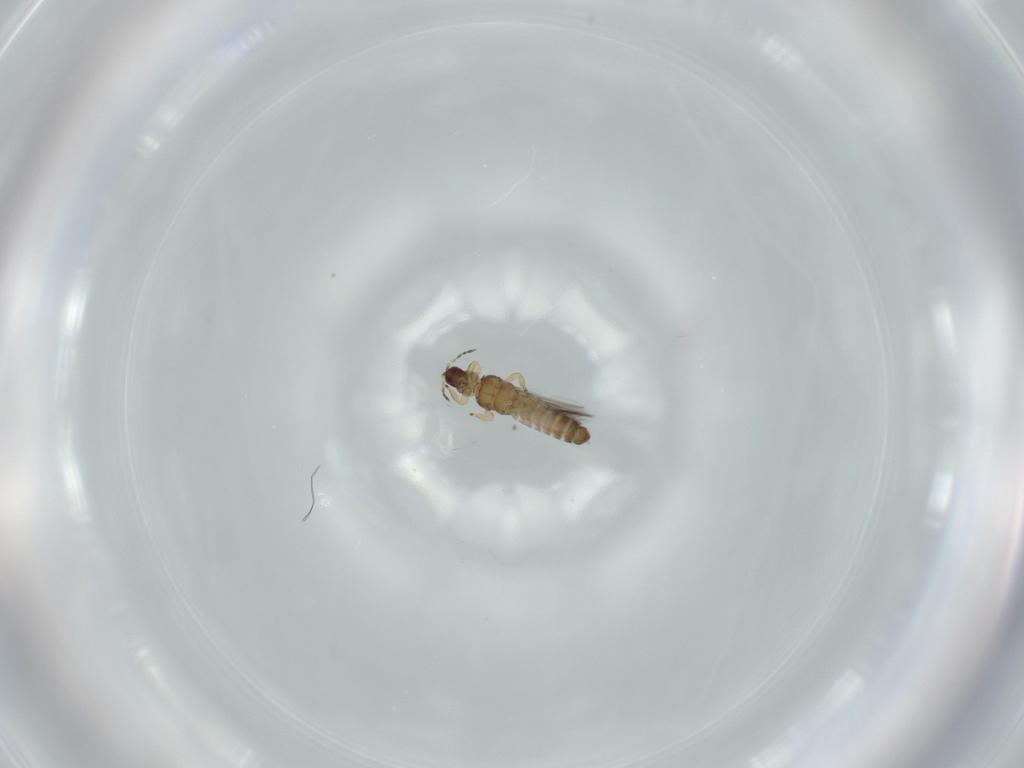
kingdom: Animalia
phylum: Arthropoda
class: Insecta
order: Thysanoptera
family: Thripidae
